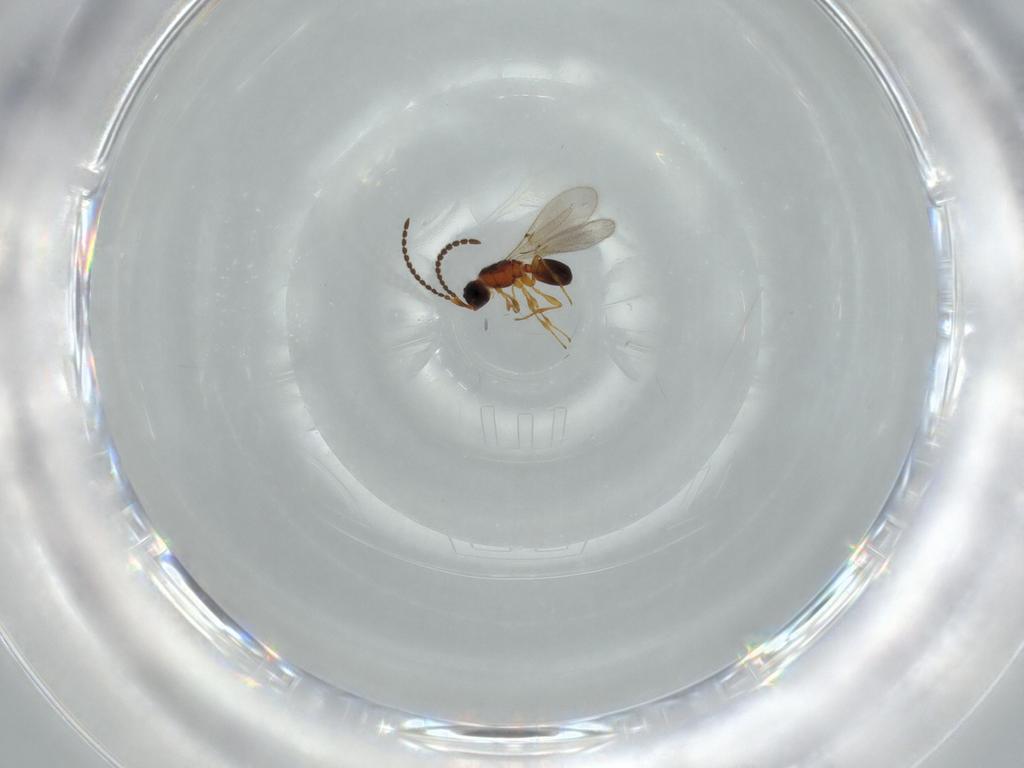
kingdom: Animalia
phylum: Arthropoda
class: Insecta
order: Hymenoptera
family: Diapriidae
